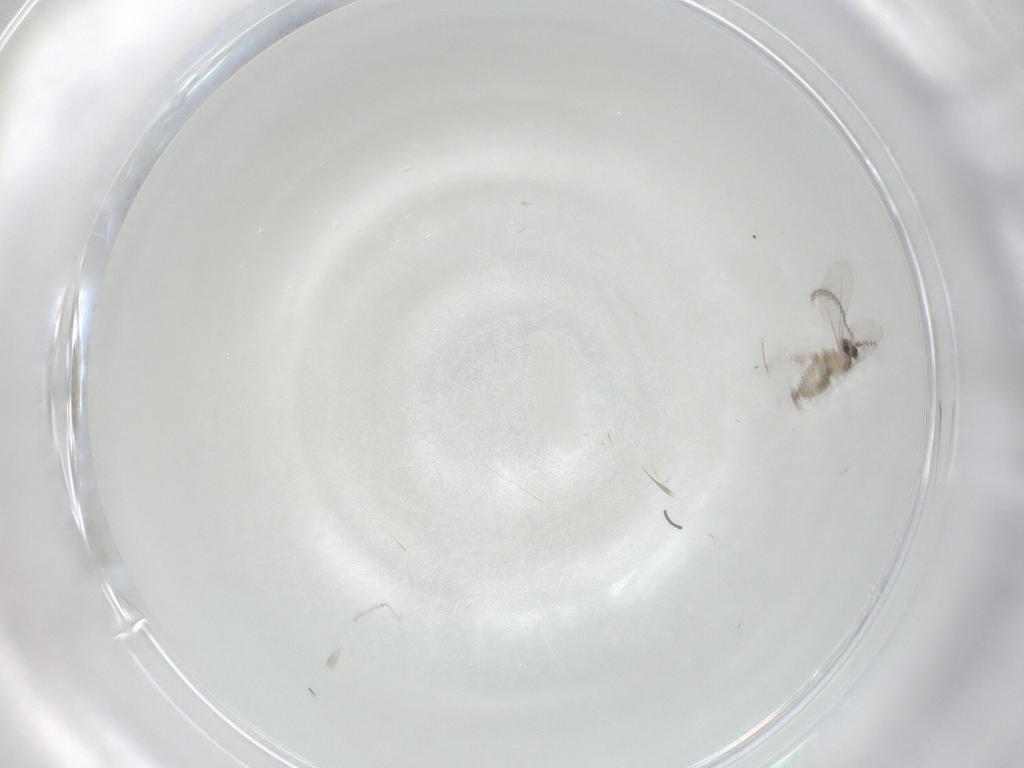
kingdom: Animalia
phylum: Arthropoda
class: Insecta
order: Diptera
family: Cecidomyiidae
